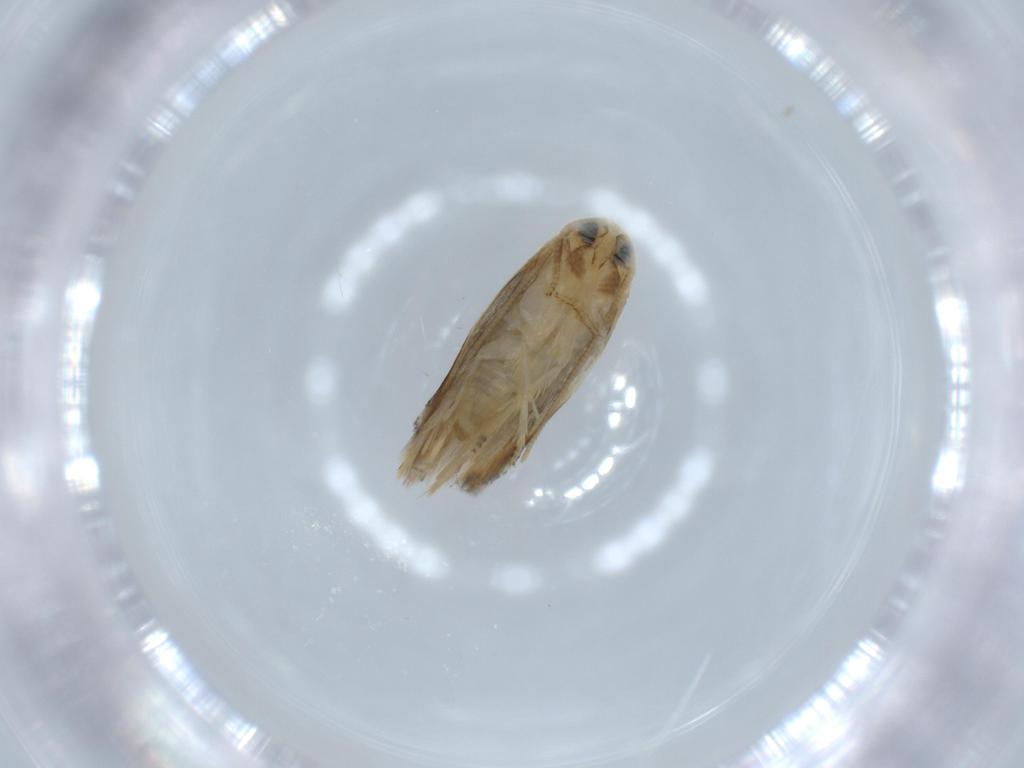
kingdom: Animalia
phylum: Arthropoda
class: Insecta
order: Lepidoptera
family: Opostegidae
